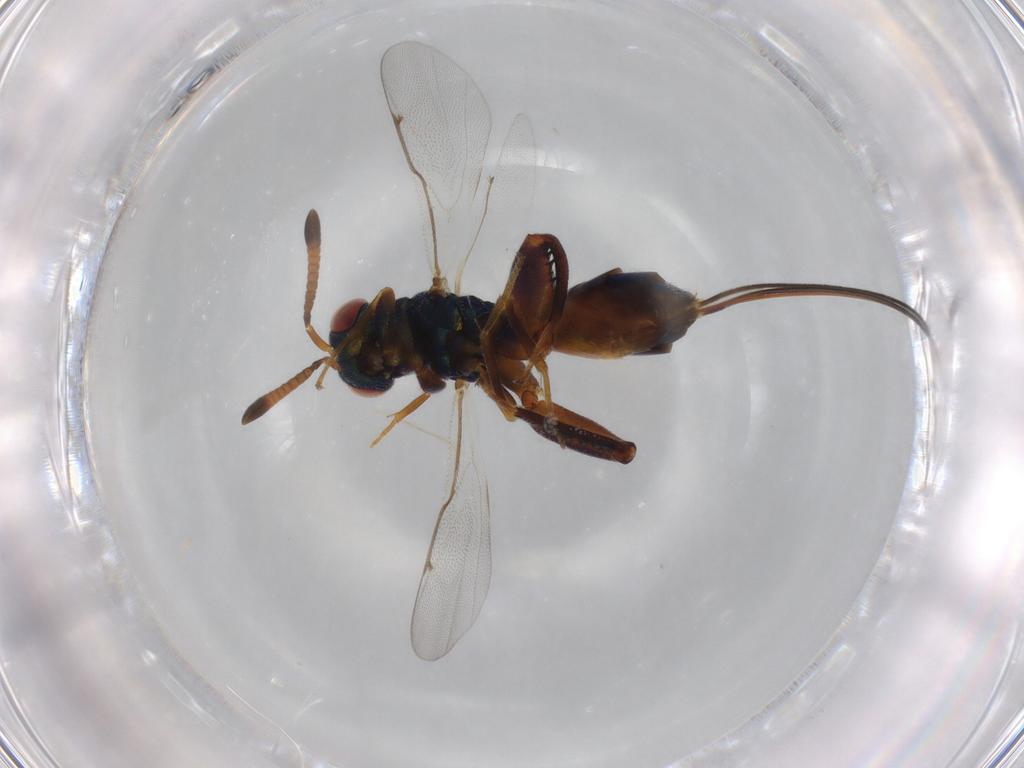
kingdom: Animalia
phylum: Arthropoda
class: Insecta
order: Hymenoptera
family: Torymidae
